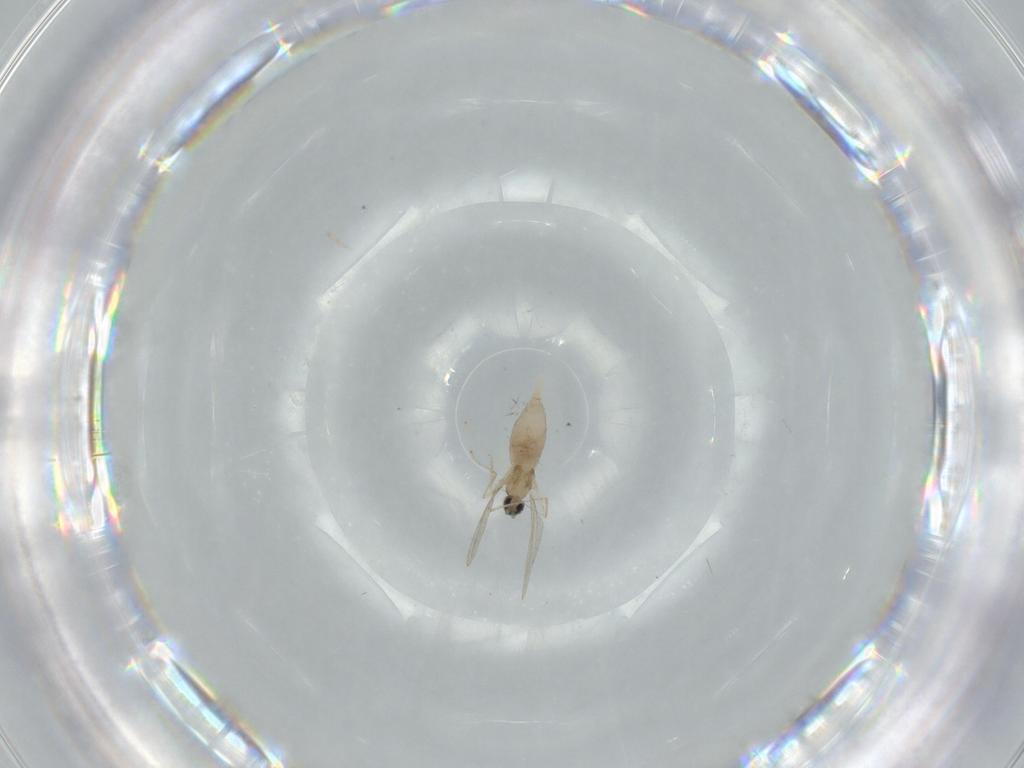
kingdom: Animalia
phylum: Arthropoda
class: Insecta
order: Diptera
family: Cecidomyiidae
